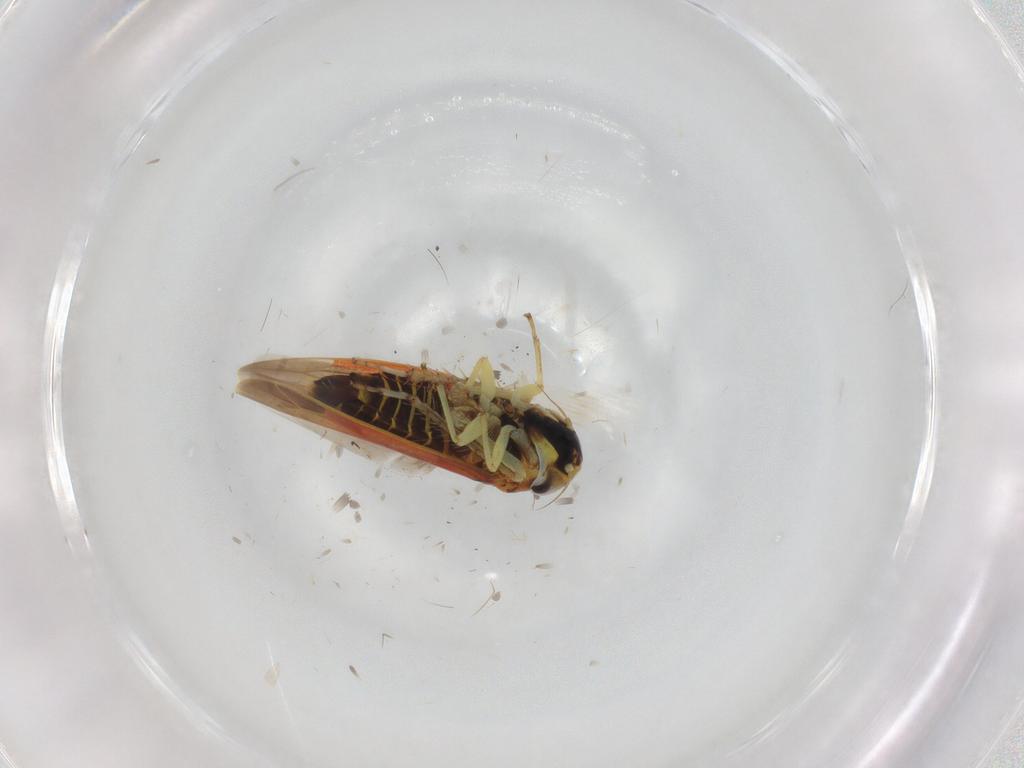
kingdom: Animalia
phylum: Arthropoda
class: Insecta
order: Hemiptera
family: Cicadellidae
